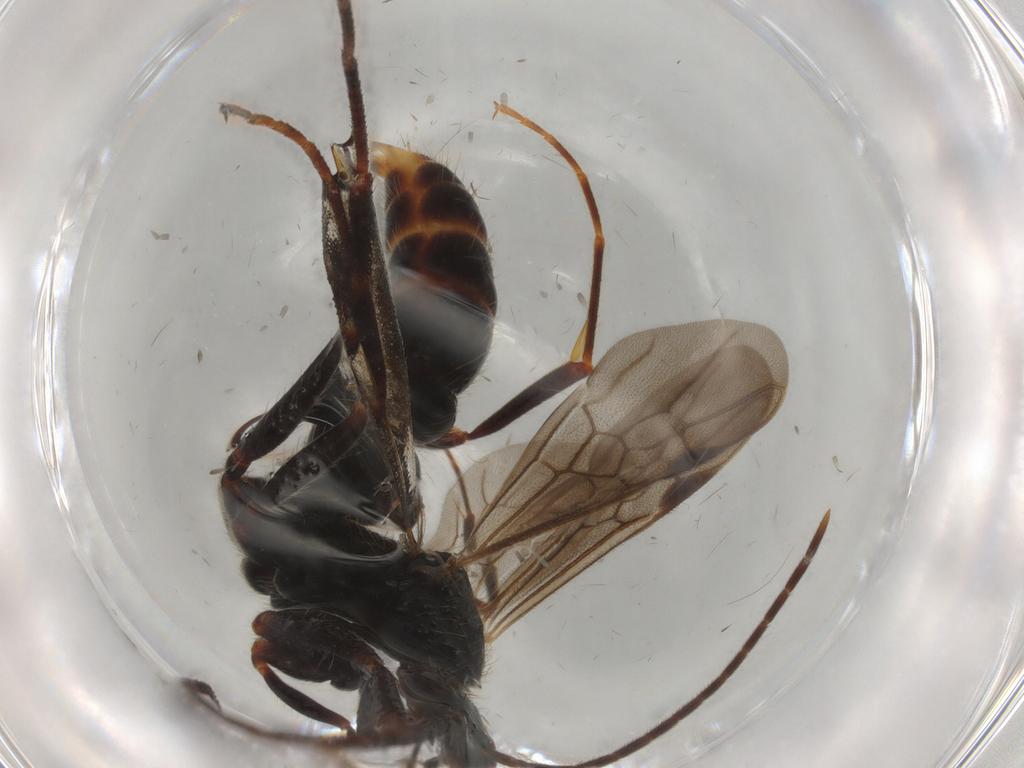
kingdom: Animalia
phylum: Arthropoda
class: Insecta
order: Hymenoptera
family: Formicidae
